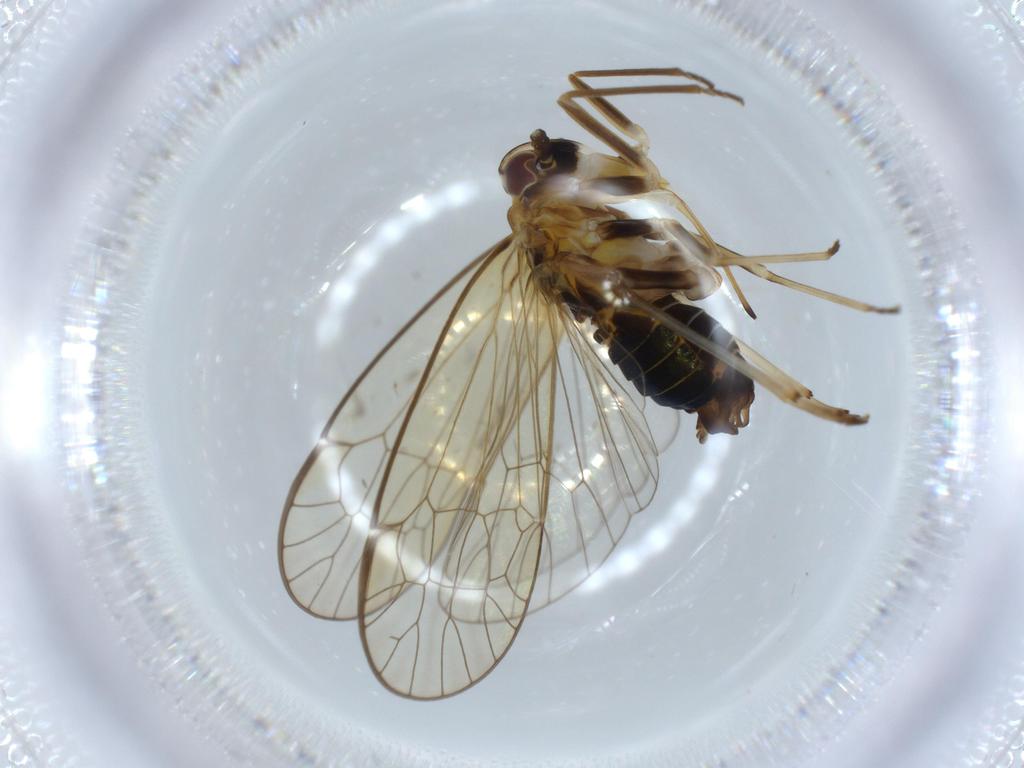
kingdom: Animalia
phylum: Arthropoda
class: Insecta
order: Hemiptera
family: Kinnaridae
